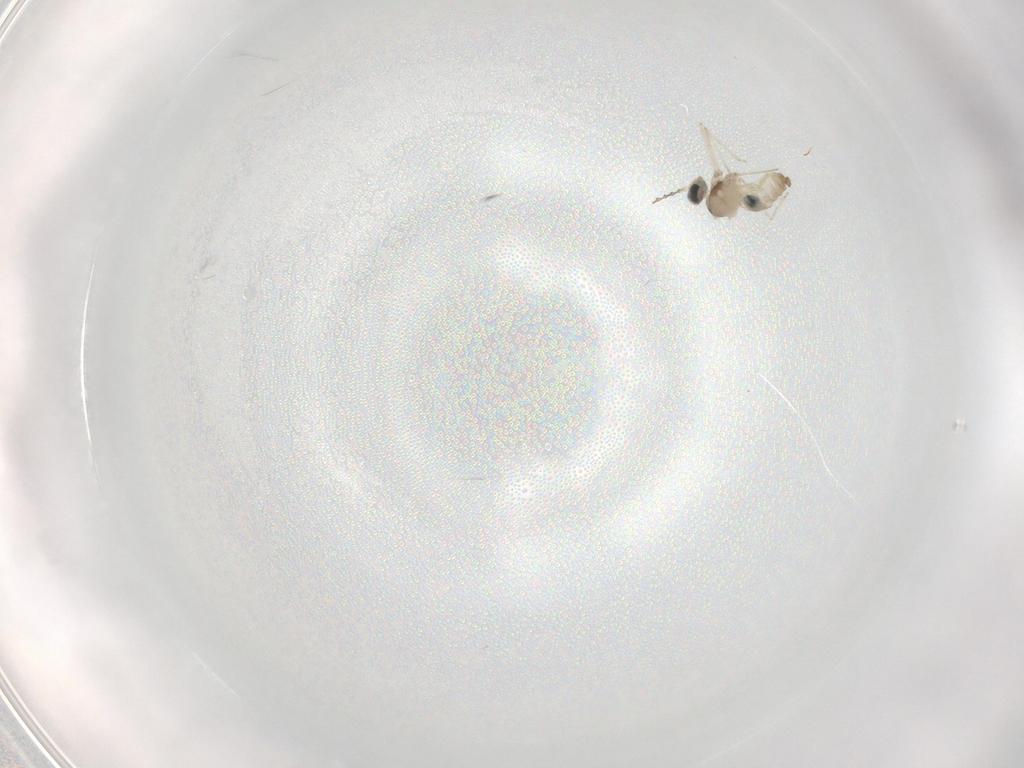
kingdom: Animalia
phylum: Arthropoda
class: Insecta
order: Diptera
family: Cecidomyiidae
